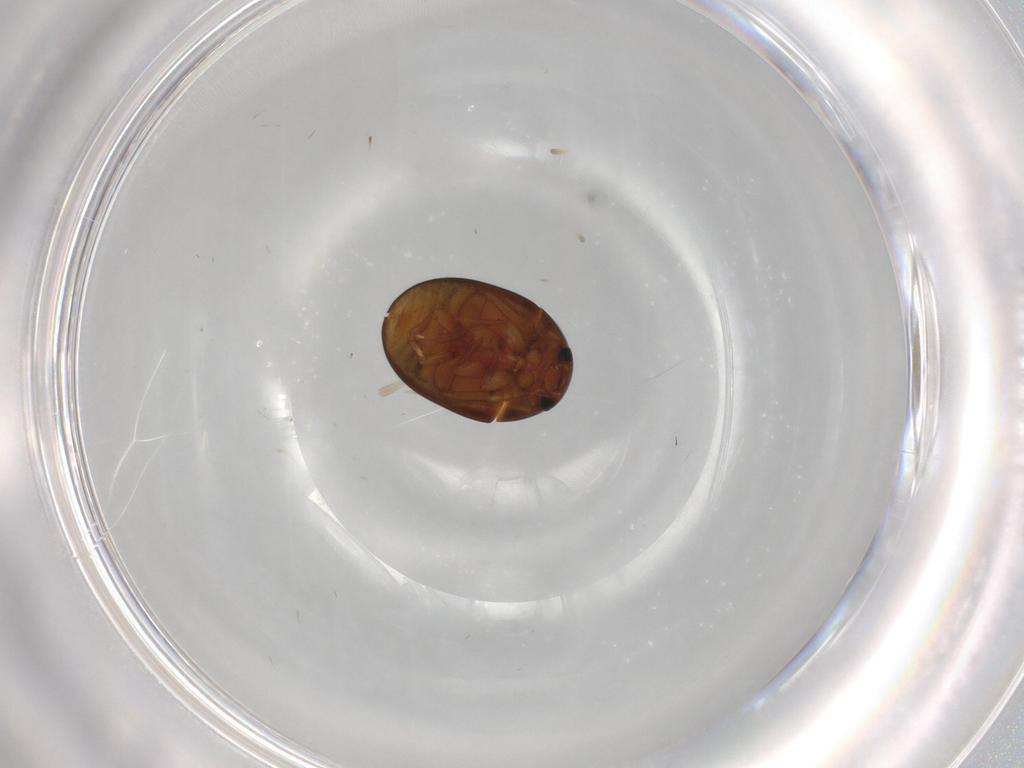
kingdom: Animalia
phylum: Arthropoda
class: Insecta
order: Coleoptera
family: Phalacridae
